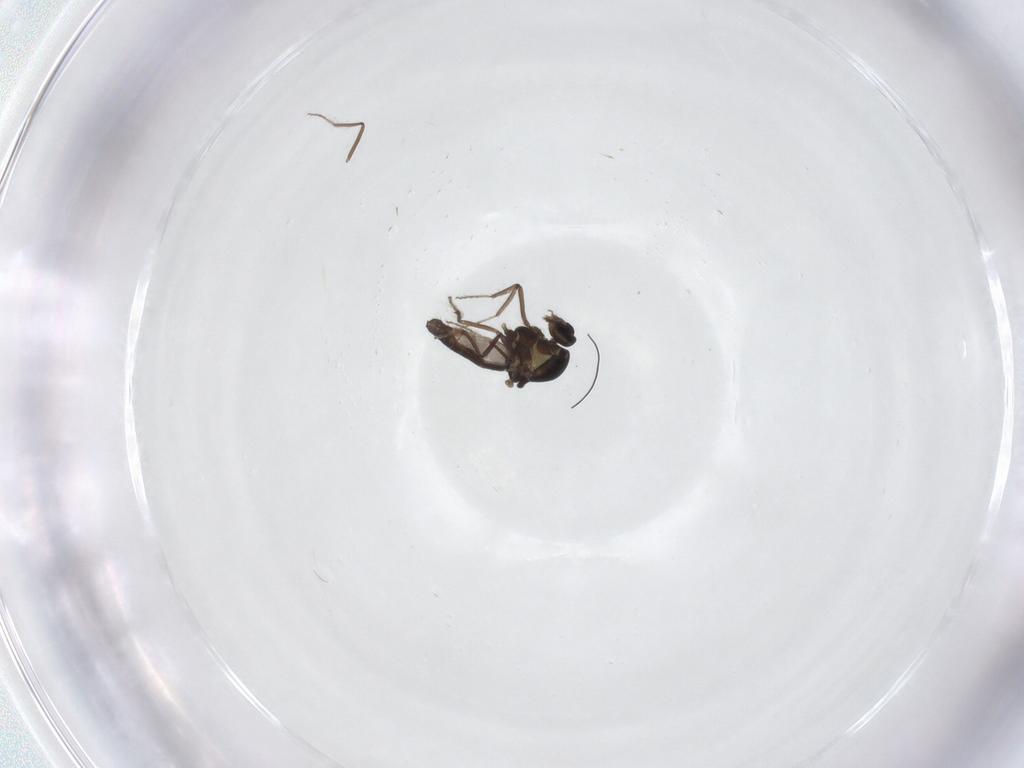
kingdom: Animalia
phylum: Arthropoda
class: Insecta
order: Diptera
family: Ceratopogonidae
